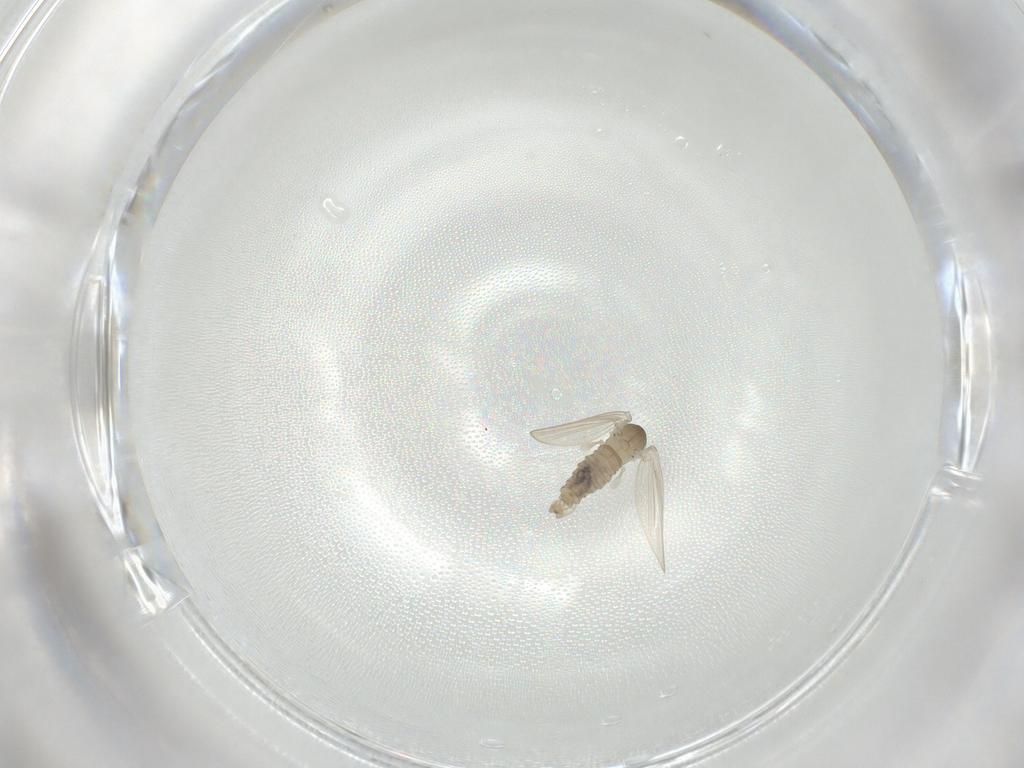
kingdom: Animalia
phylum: Arthropoda
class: Insecta
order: Diptera
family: Psychodidae
